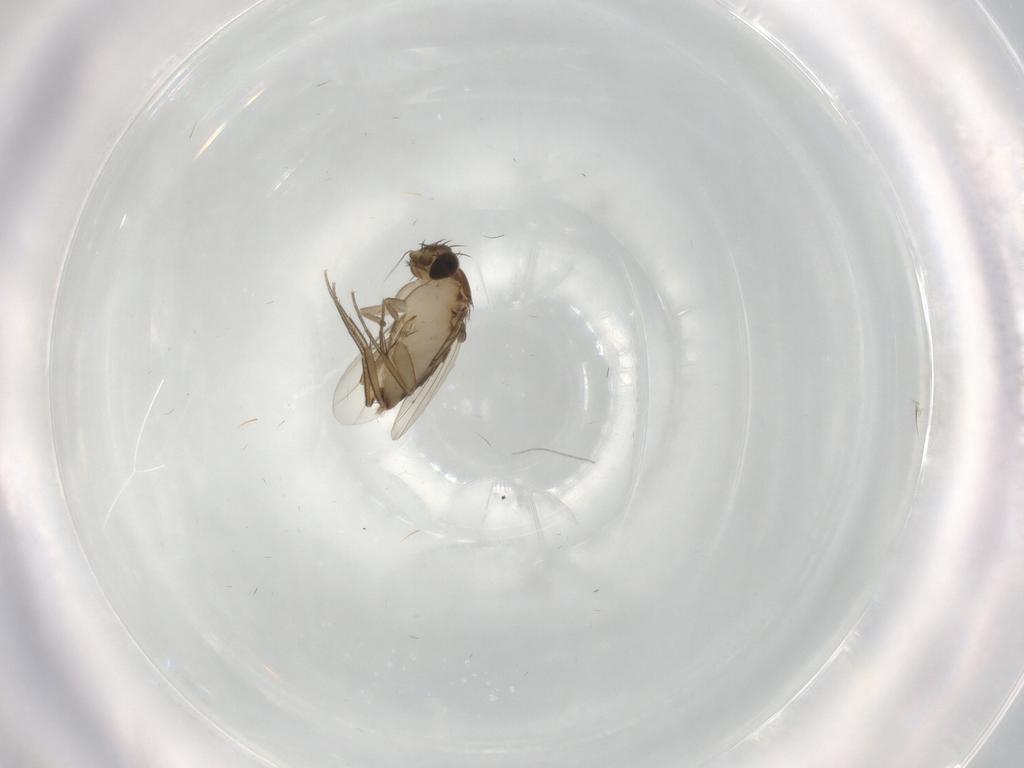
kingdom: Animalia
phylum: Arthropoda
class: Insecta
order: Diptera
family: Phoridae
